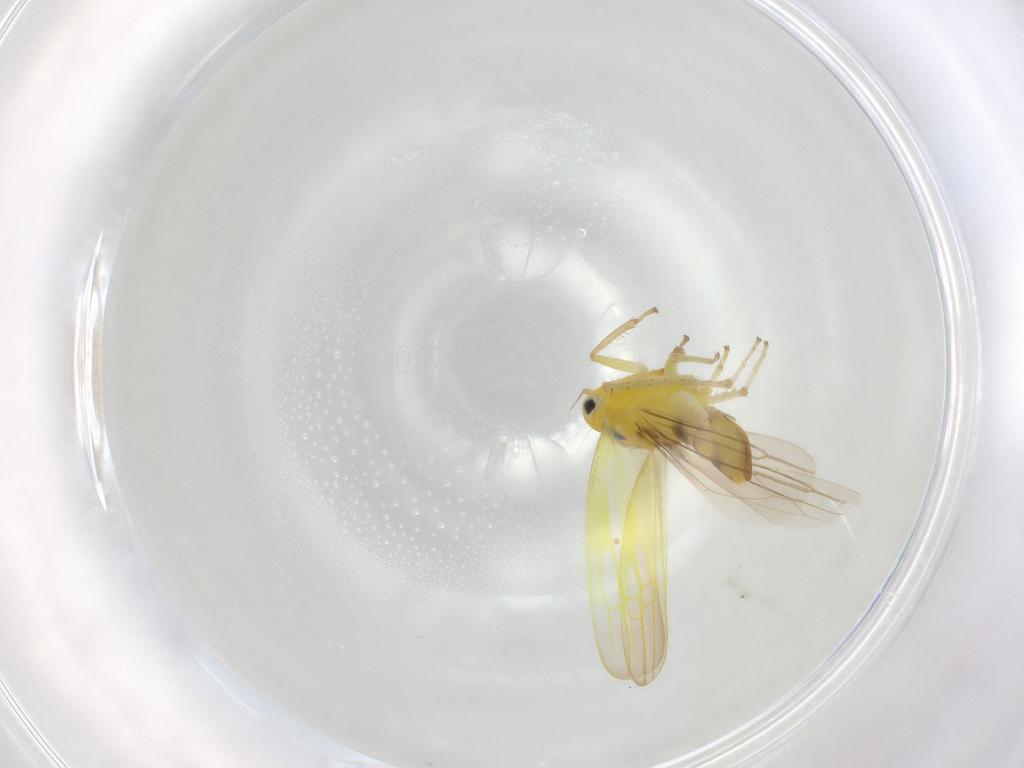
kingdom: Animalia
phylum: Arthropoda
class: Insecta
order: Hemiptera
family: Cicadellidae
